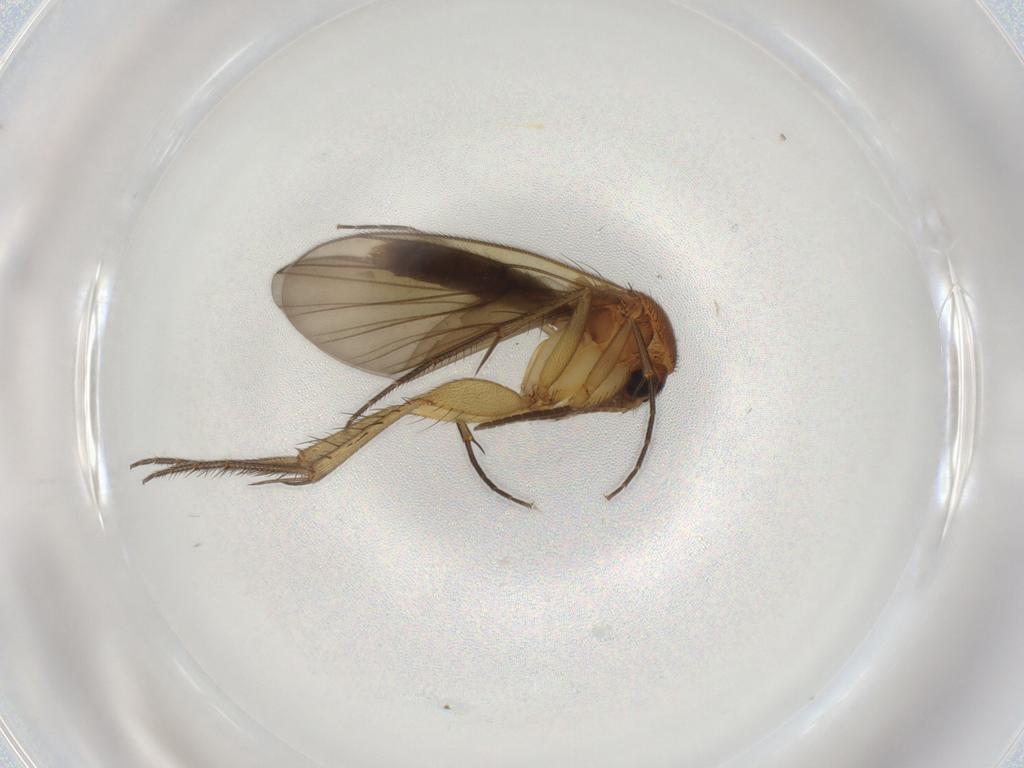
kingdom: Animalia
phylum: Arthropoda
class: Insecta
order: Diptera
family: Mycetophilidae
